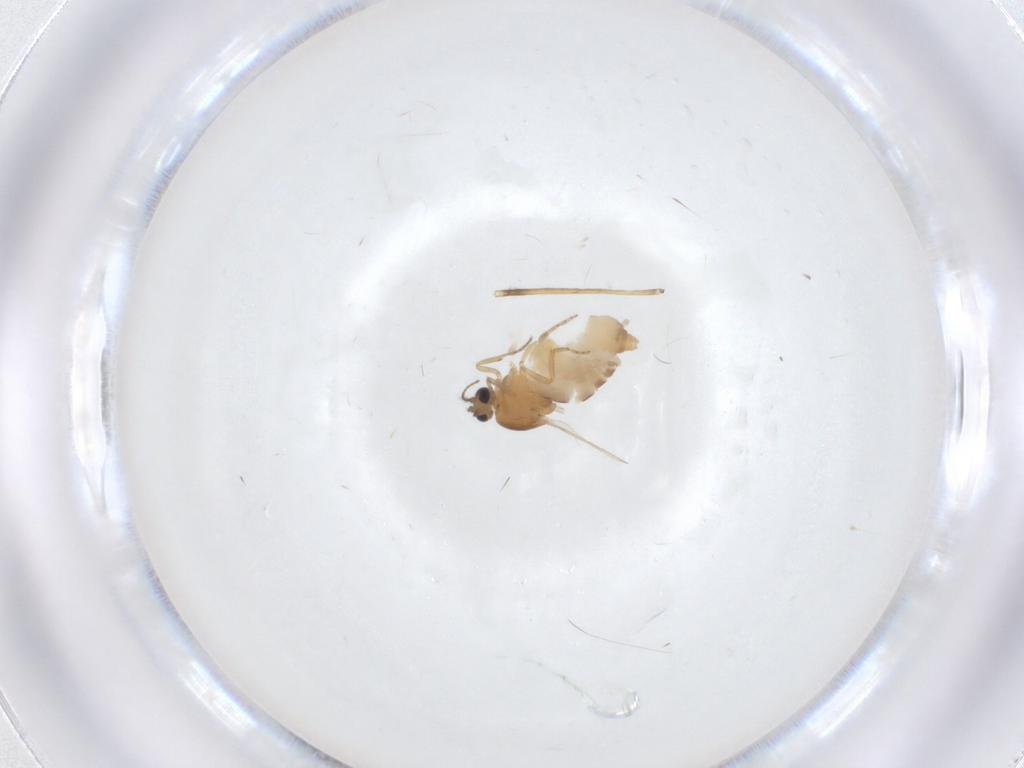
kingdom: Animalia
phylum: Arthropoda
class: Insecta
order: Diptera
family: Ceratopogonidae
